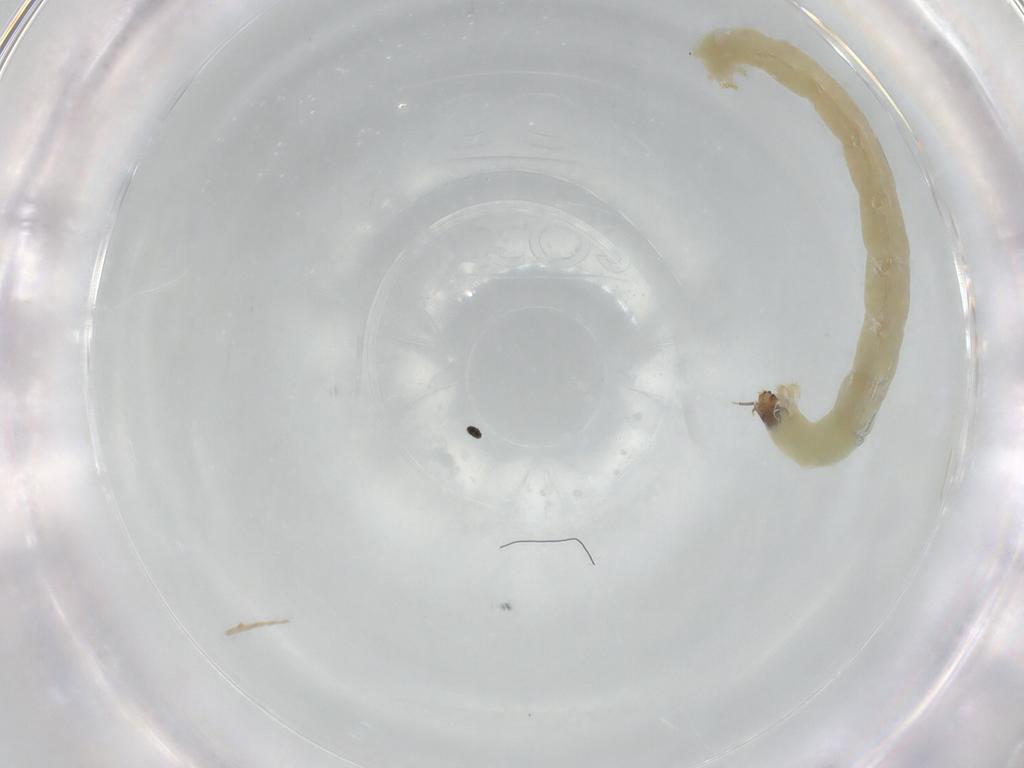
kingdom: Animalia
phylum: Arthropoda
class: Insecta
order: Diptera
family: Chironomidae
